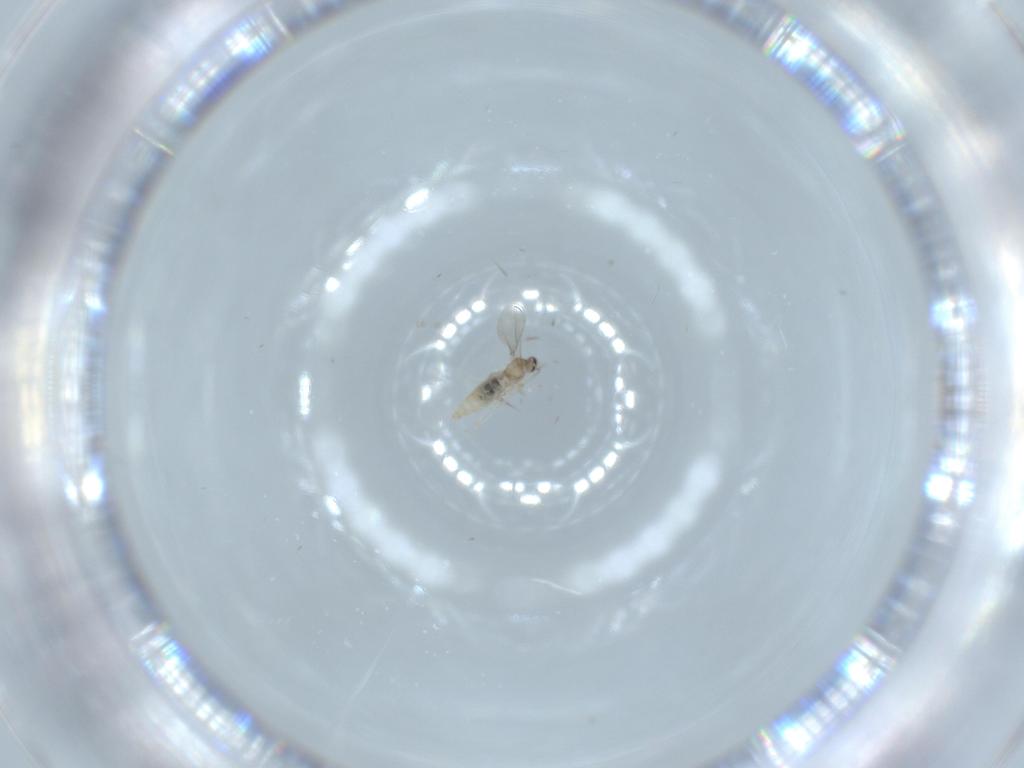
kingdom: Animalia
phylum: Arthropoda
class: Insecta
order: Diptera
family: Cecidomyiidae
